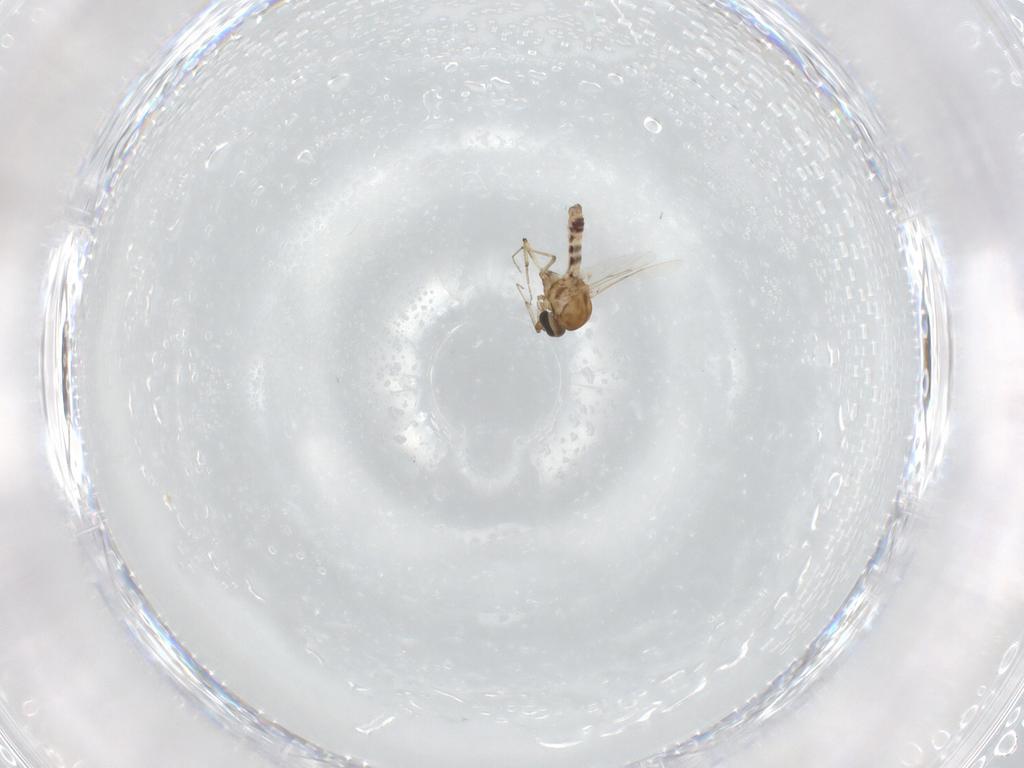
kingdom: Animalia
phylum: Arthropoda
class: Insecta
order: Diptera
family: Ceratopogonidae
